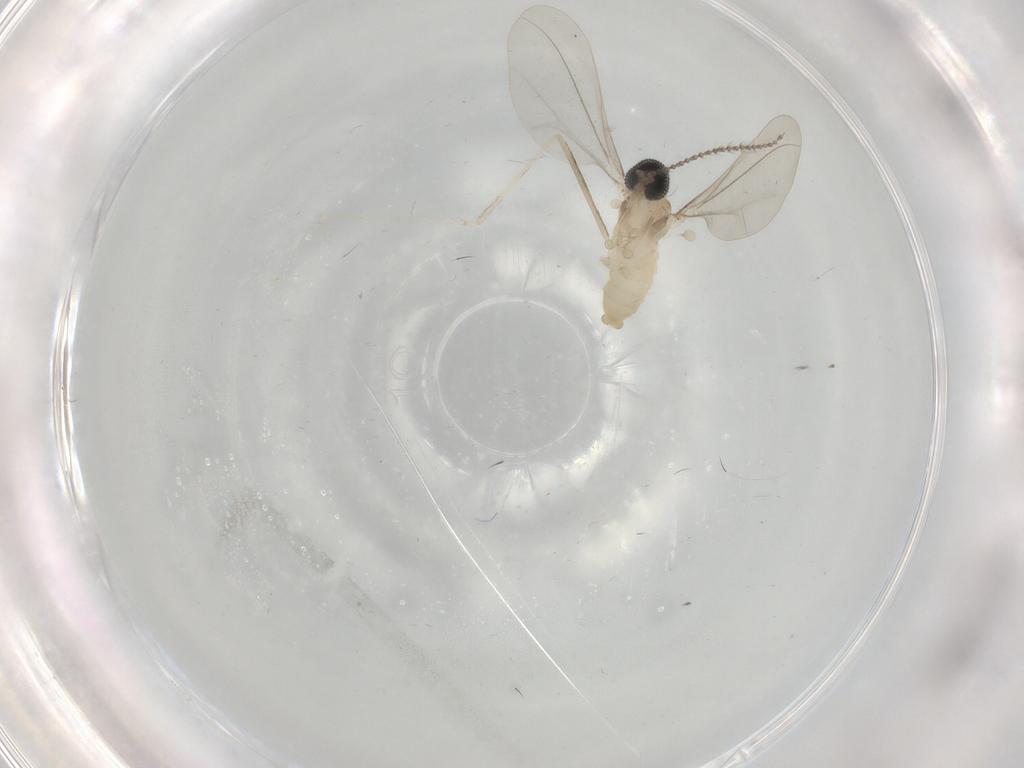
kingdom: Animalia
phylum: Arthropoda
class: Insecta
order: Diptera
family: Cecidomyiidae
